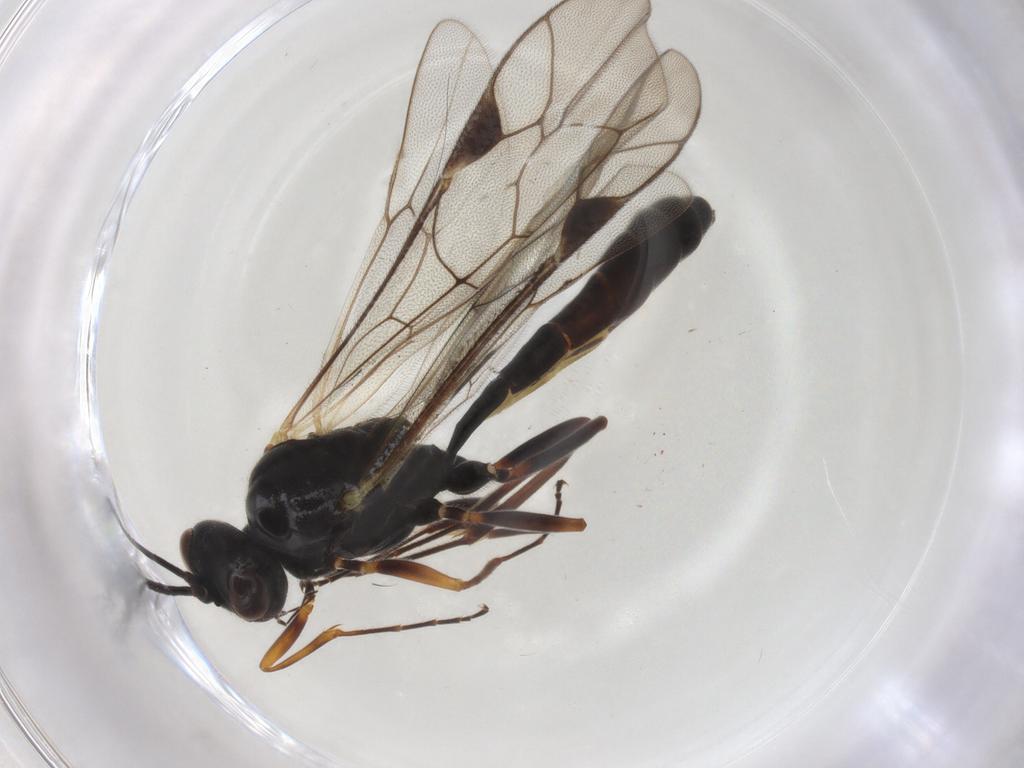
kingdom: Animalia
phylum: Arthropoda
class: Insecta
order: Hymenoptera
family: Ichneumonidae
